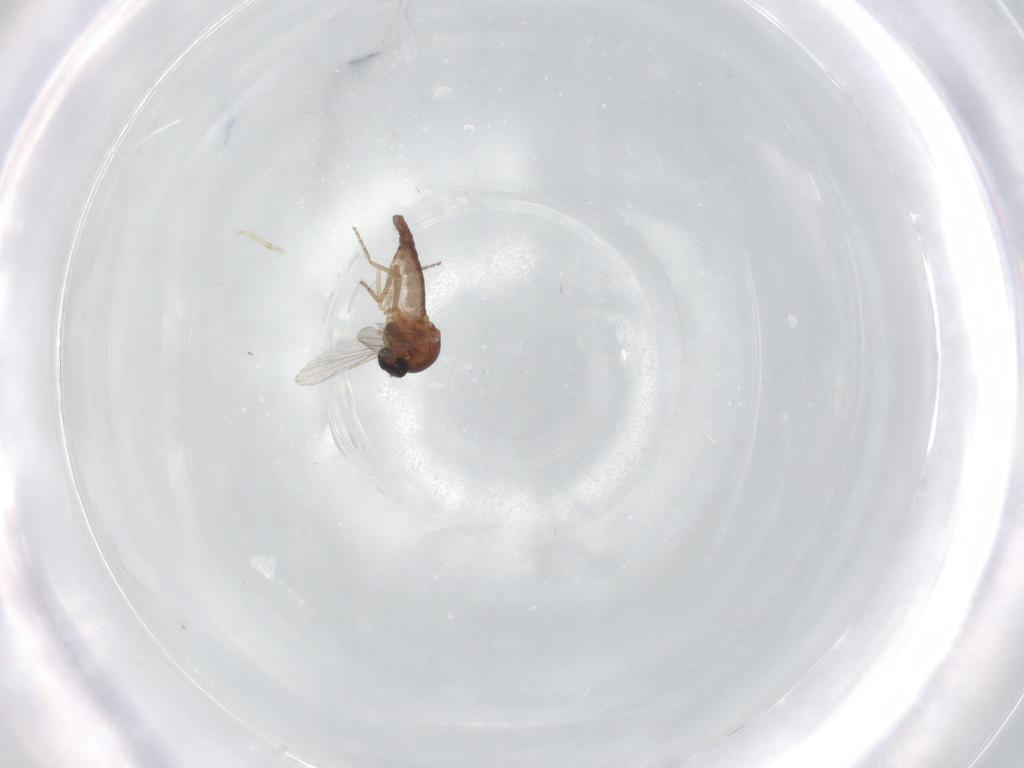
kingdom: Animalia
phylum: Arthropoda
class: Insecta
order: Diptera
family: Ceratopogonidae
